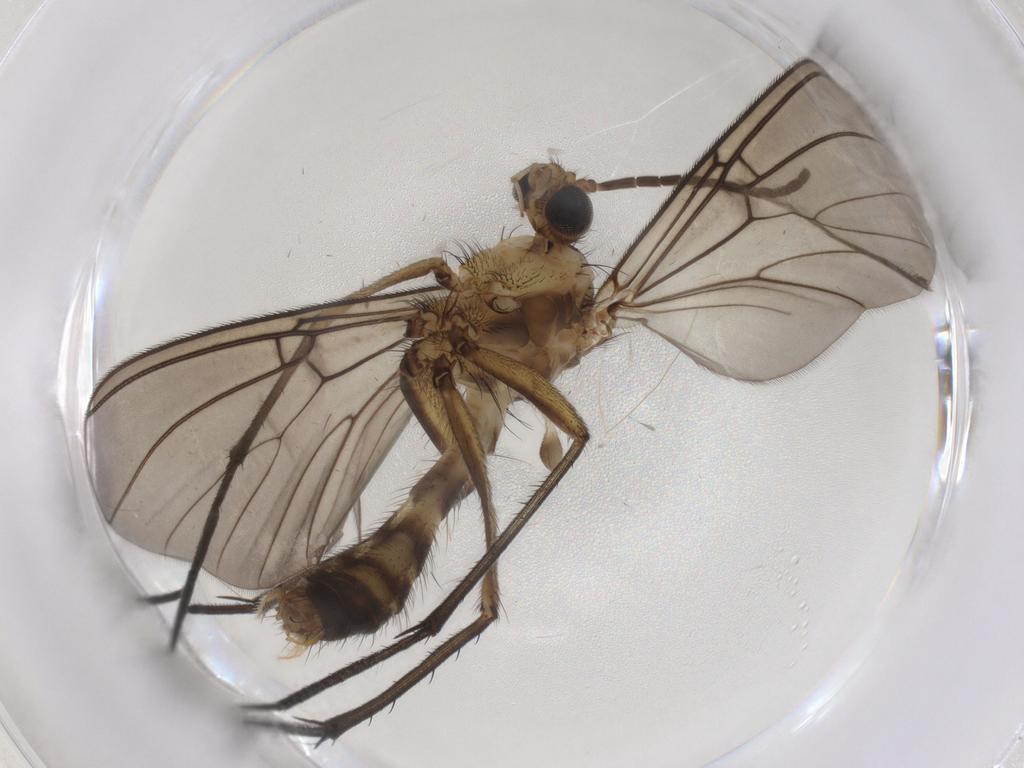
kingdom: Animalia
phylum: Arthropoda
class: Insecta
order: Diptera
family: Mycetophilidae
